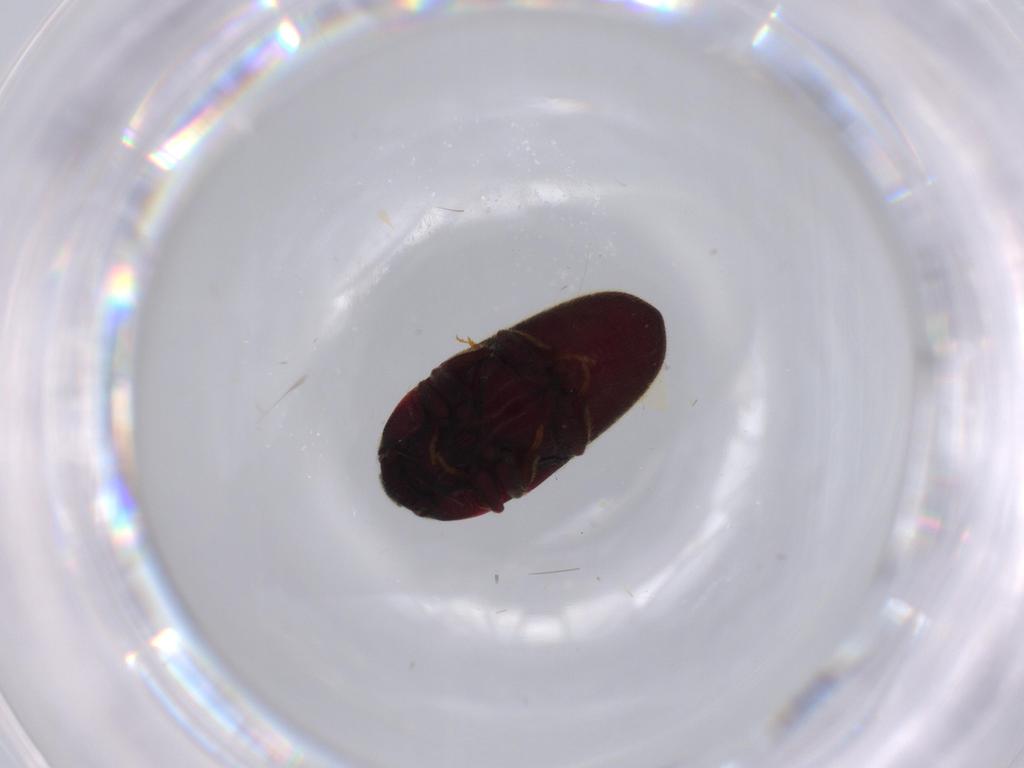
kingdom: Animalia
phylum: Arthropoda
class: Insecta
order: Coleoptera
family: Throscidae
